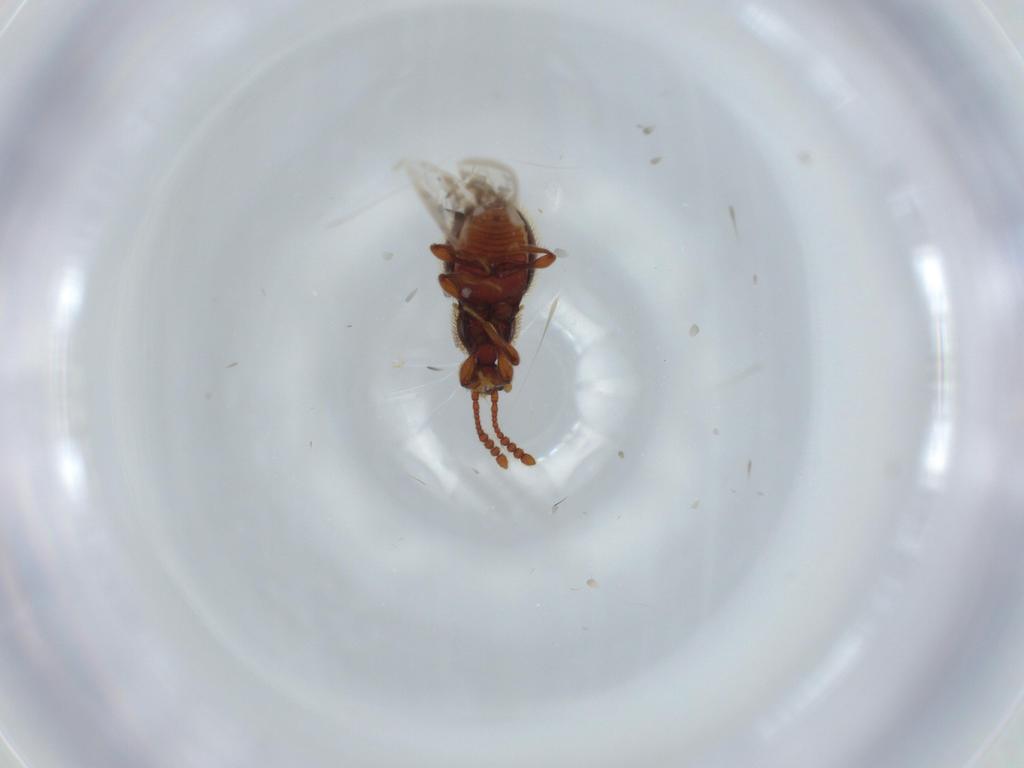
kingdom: Animalia
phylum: Arthropoda
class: Insecta
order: Coleoptera
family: Cleridae
